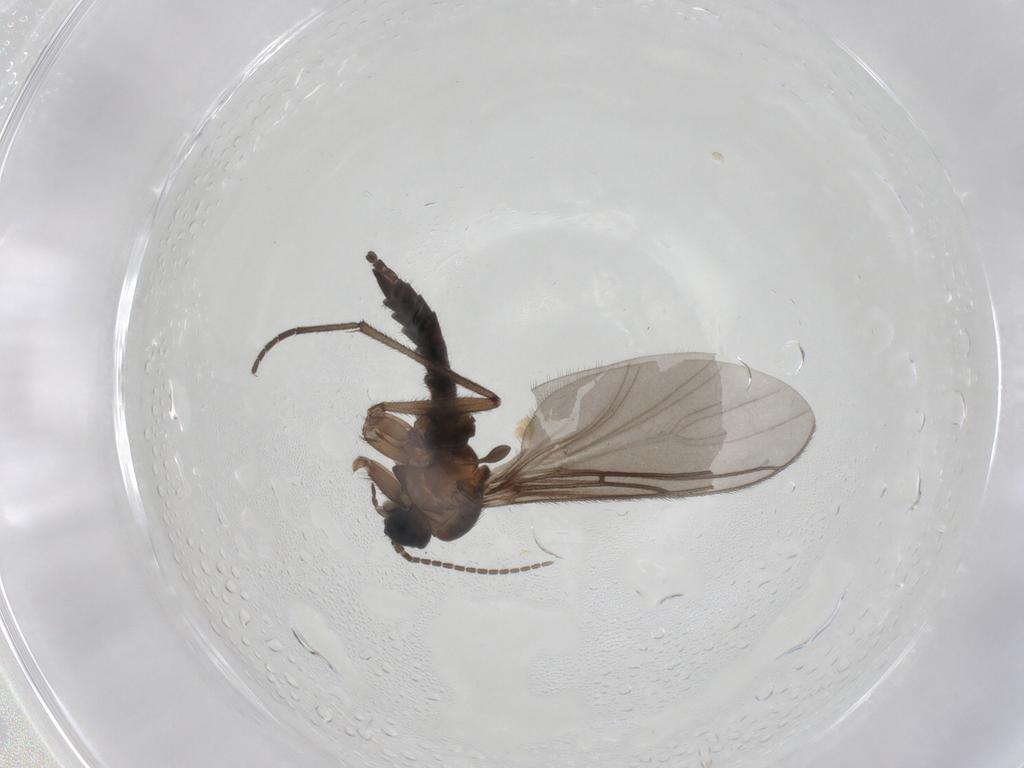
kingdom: Animalia
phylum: Arthropoda
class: Insecta
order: Diptera
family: Sciaridae
